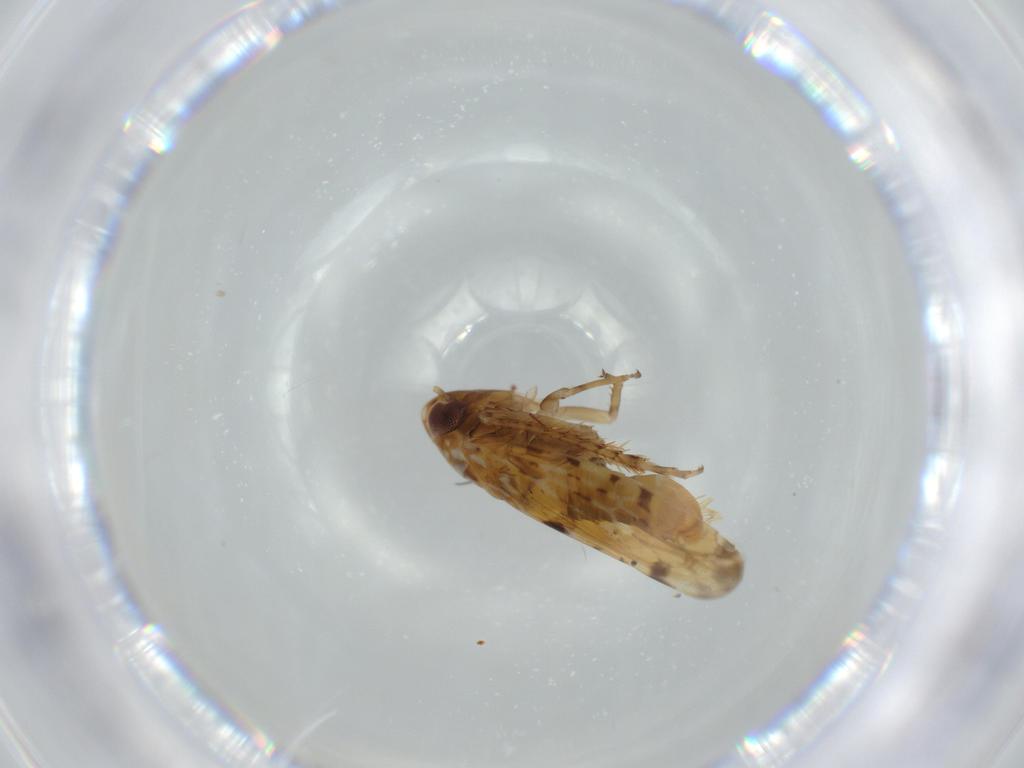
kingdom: Animalia
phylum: Arthropoda
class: Insecta
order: Hemiptera
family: Cicadellidae
